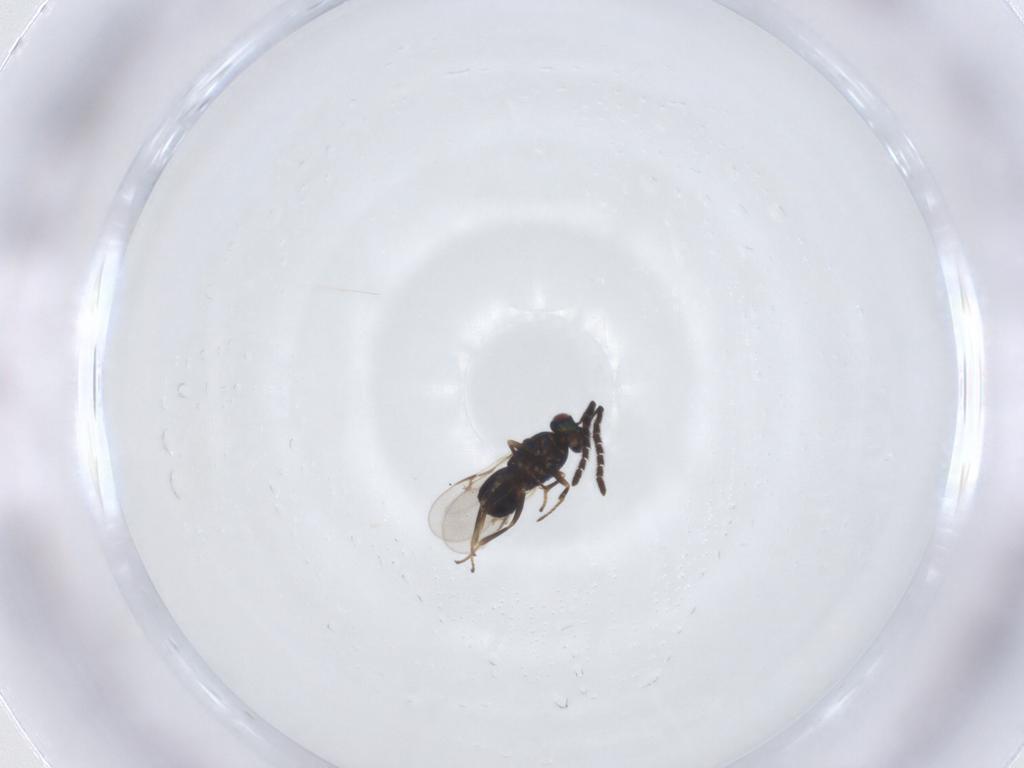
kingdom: Animalia
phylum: Arthropoda
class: Insecta
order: Hymenoptera
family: Encyrtidae
